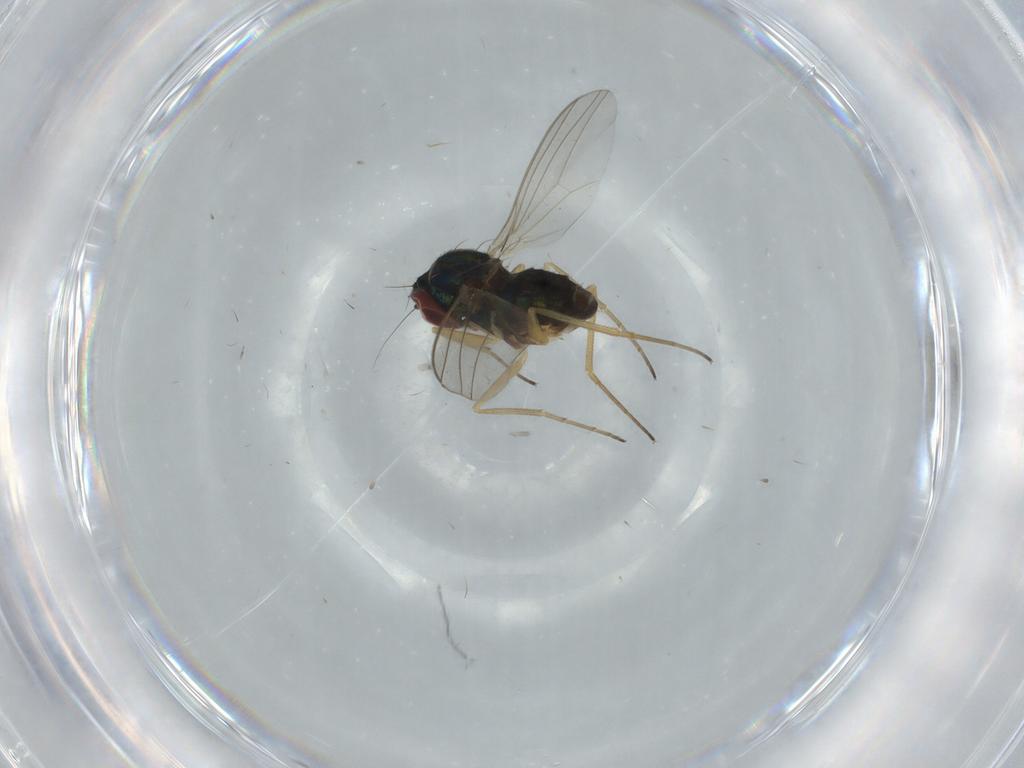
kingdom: Animalia
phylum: Arthropoda
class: Insecta
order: Diptera
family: Dolichopodidae
